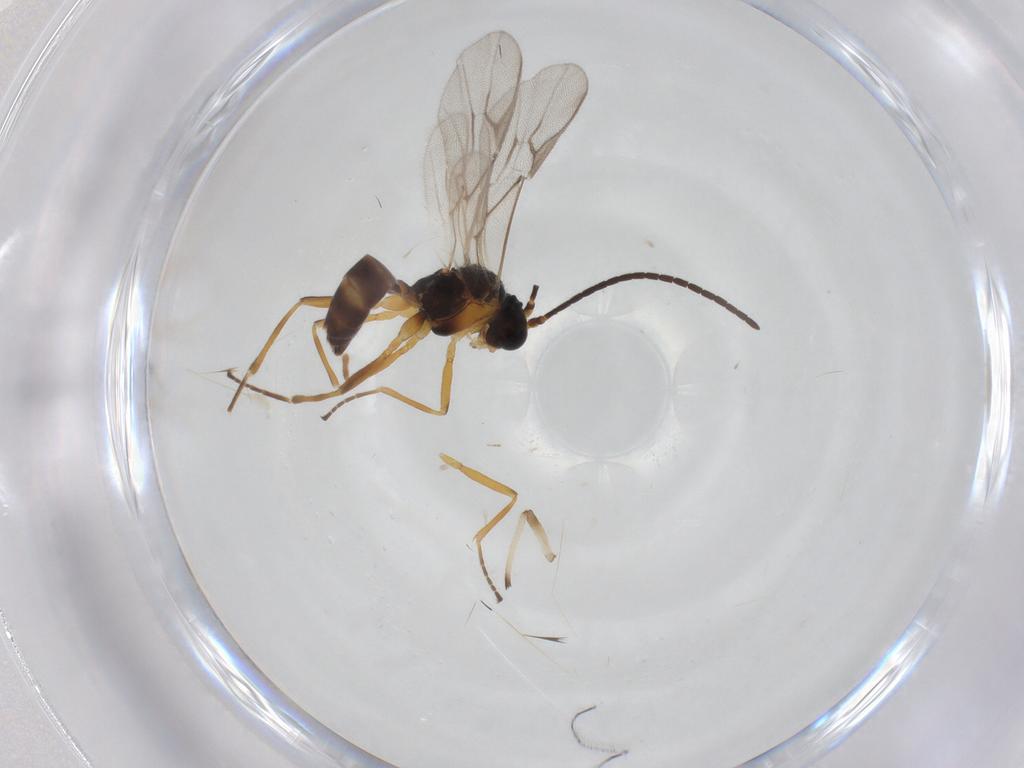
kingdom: Animalia
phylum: Arthropoda
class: Insecta
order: Hymenoptera
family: Braconidae
